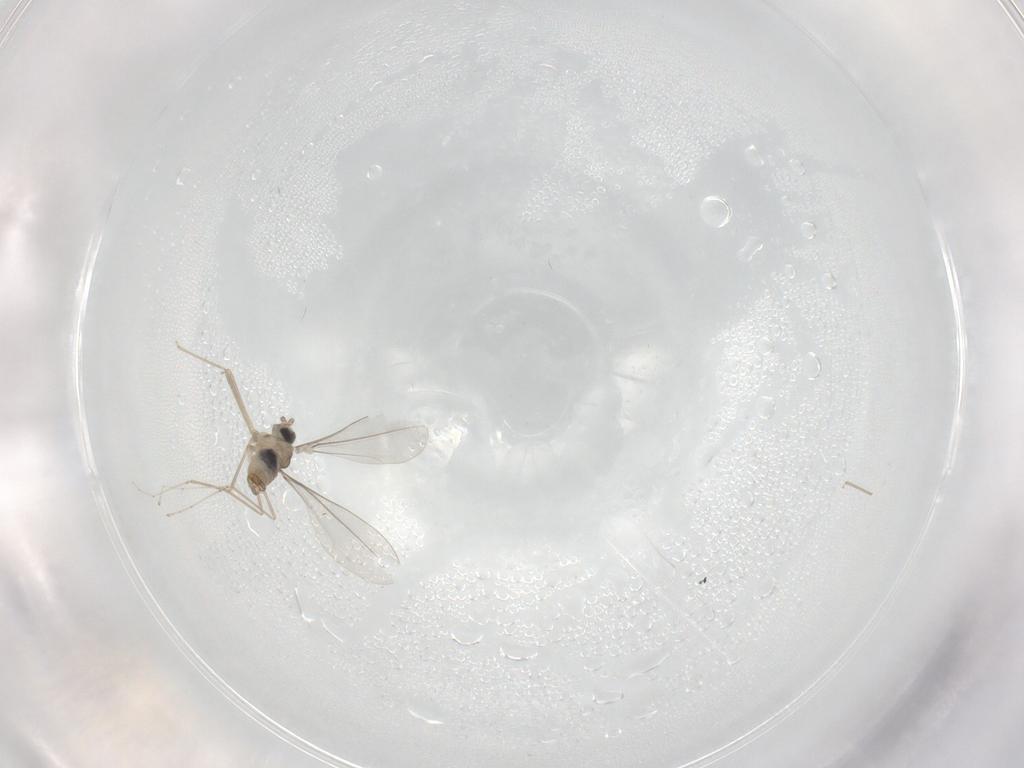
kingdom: Animalia
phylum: Arthropoda
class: Insecta
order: Diptera
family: Cecidomyiidae
